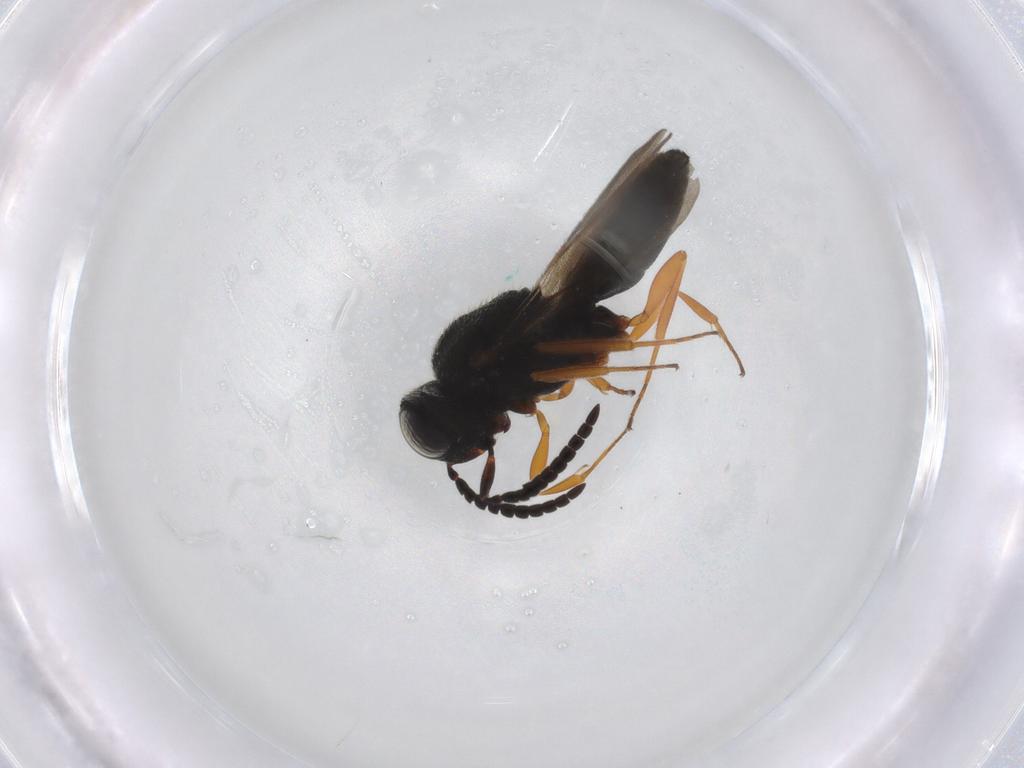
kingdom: Animalia
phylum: Arthropoda
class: Insecta
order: Hymenoptera
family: Scelionidae
